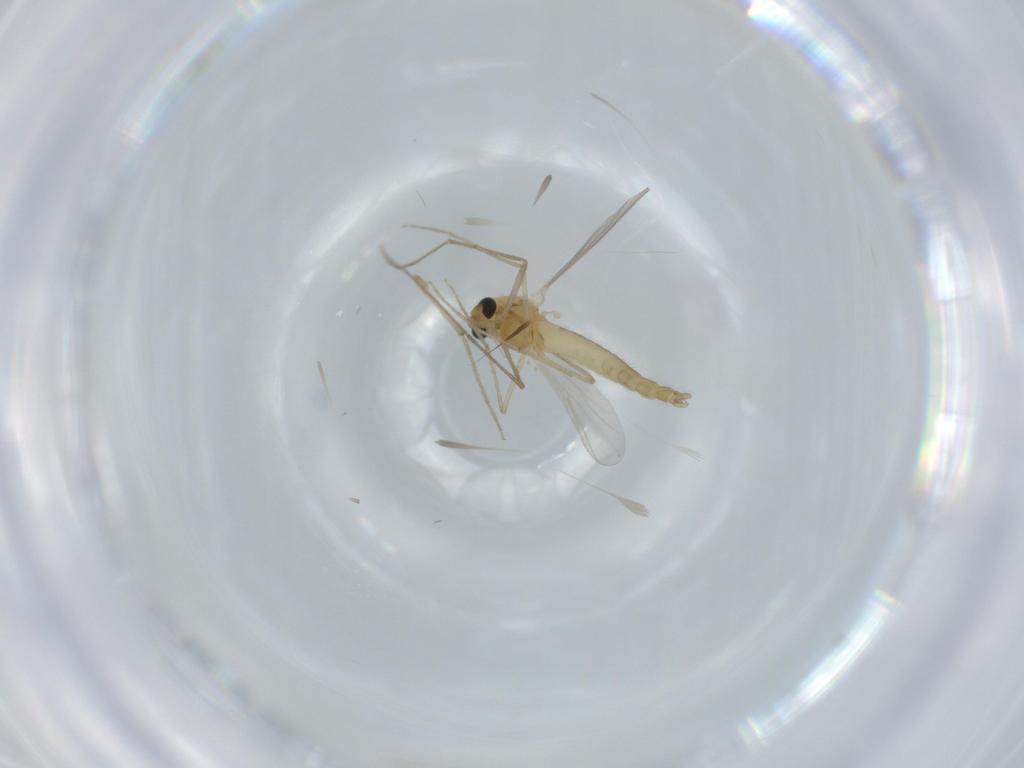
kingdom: Animalia
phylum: Arthropoda
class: Insecta
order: Diptera
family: Chironomidae
